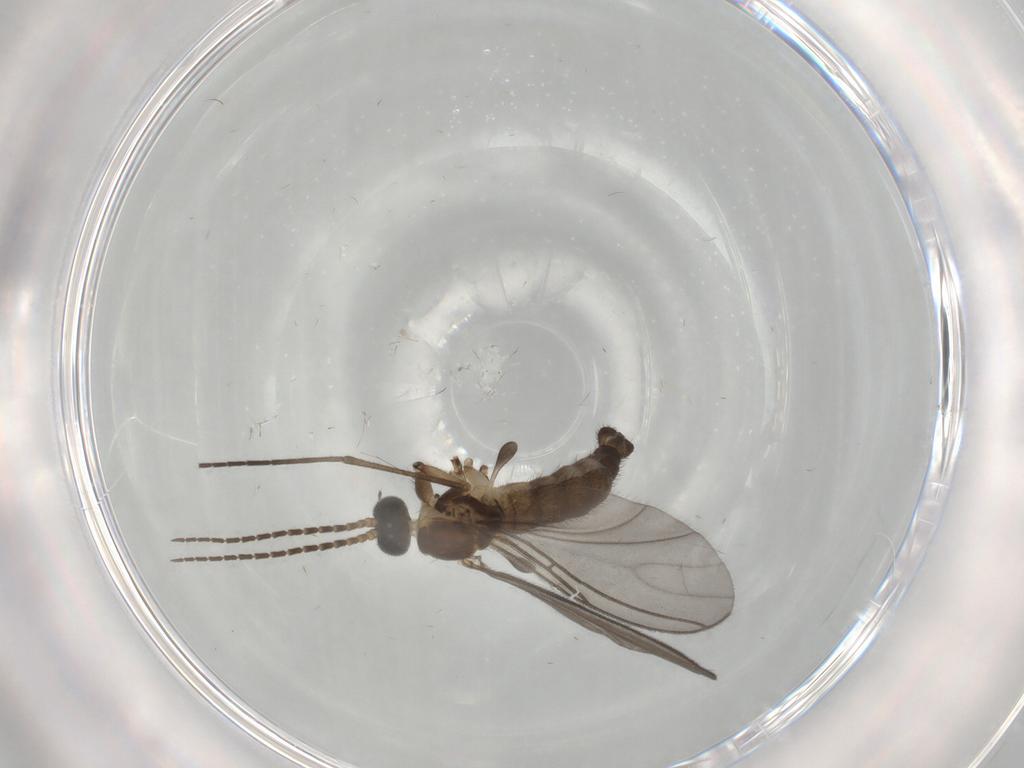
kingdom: Animalia
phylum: Arthropoda
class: Insecta
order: Diptera
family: Sciaridae
